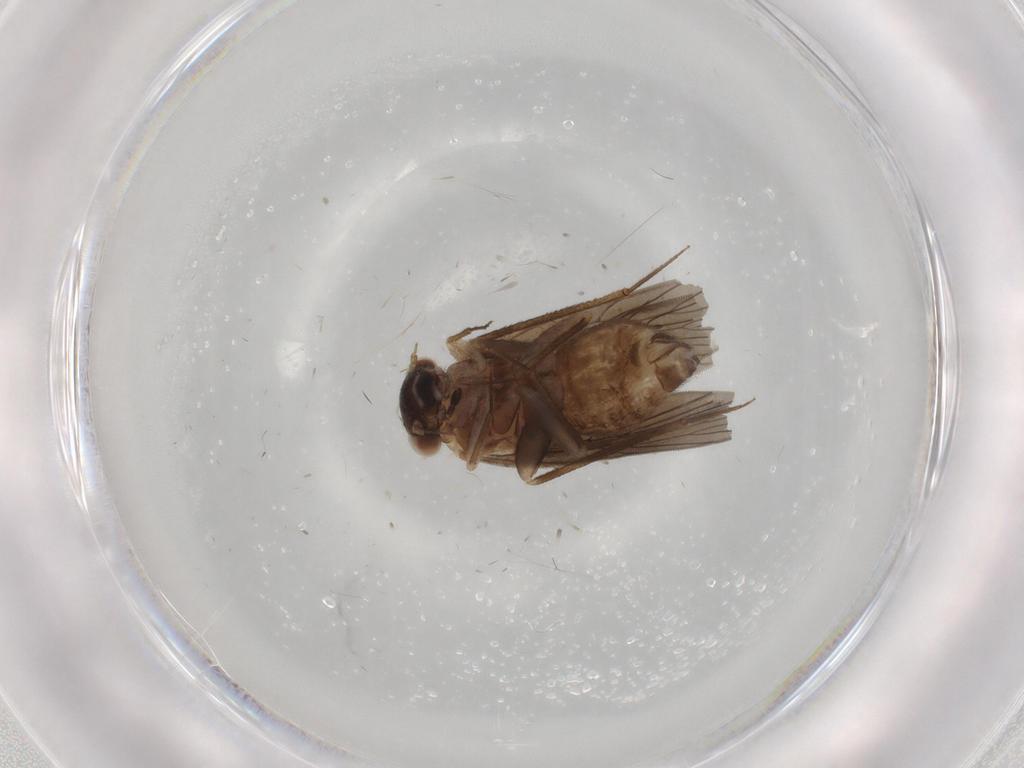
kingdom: Animalia
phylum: Arthropoda
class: Insecta
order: Psocodea
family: Lepidopsocidae
